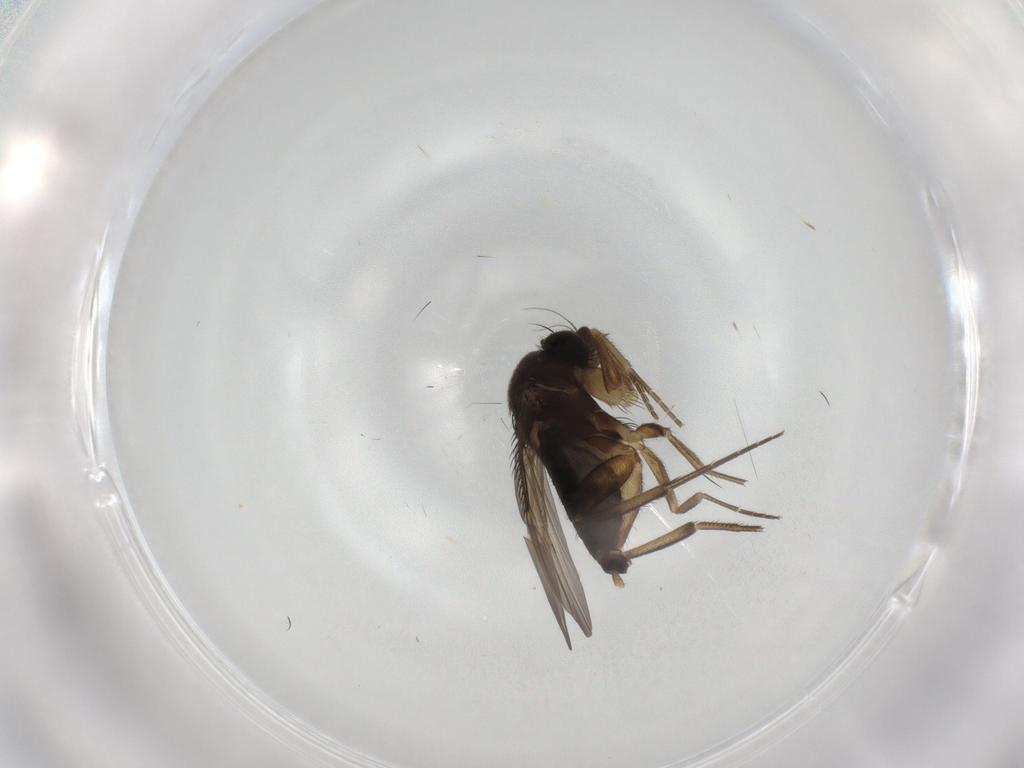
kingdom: Animalia
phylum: Arthropoda
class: Insecta
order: Diptera
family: Phoridae
